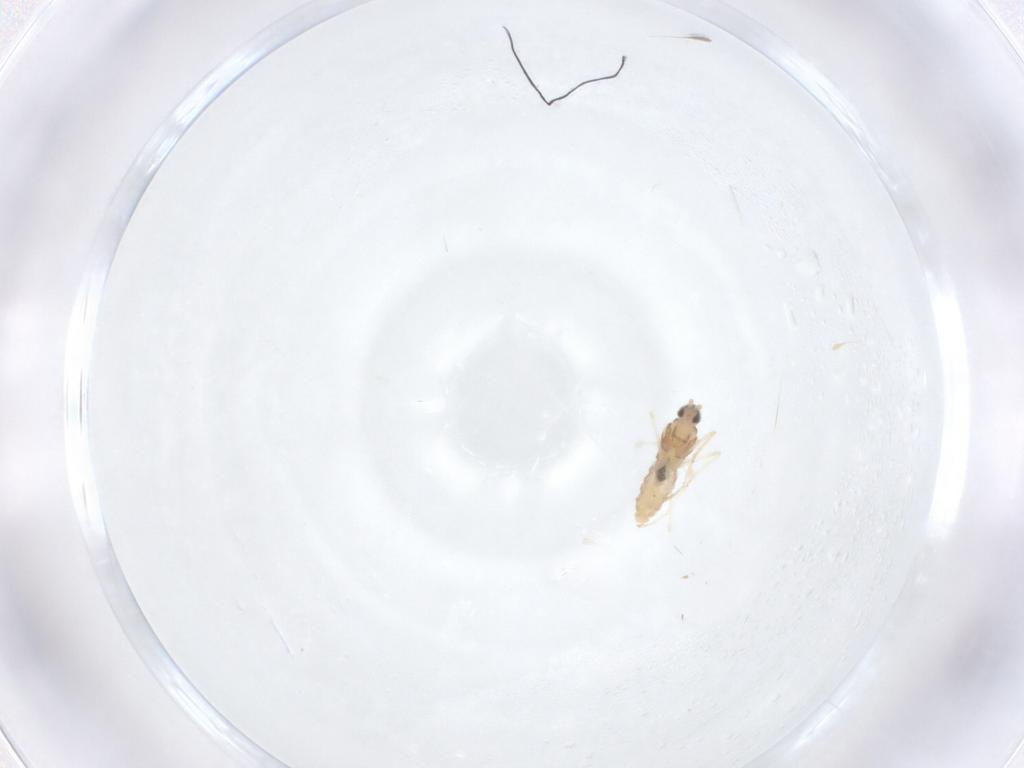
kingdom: Animalia
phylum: Arthropoda
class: Insecta
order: Diptera
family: Cecidomyiidae
